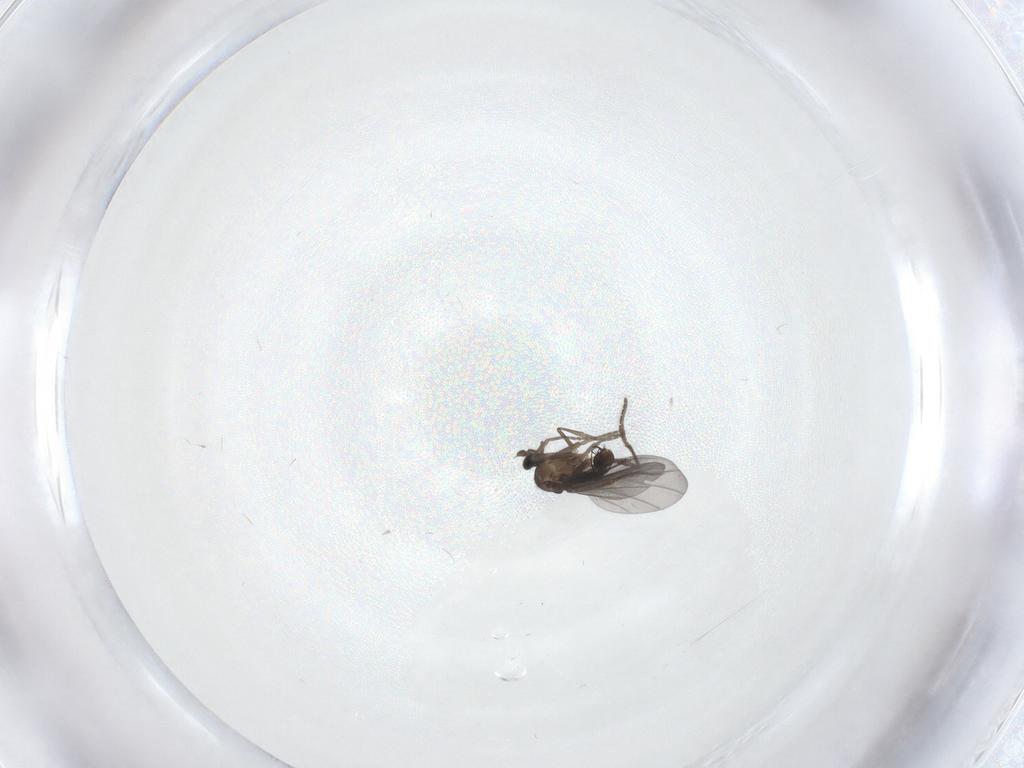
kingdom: Animalia
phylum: Arthropoda
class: Insecta
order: Diptera
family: Phoridae
